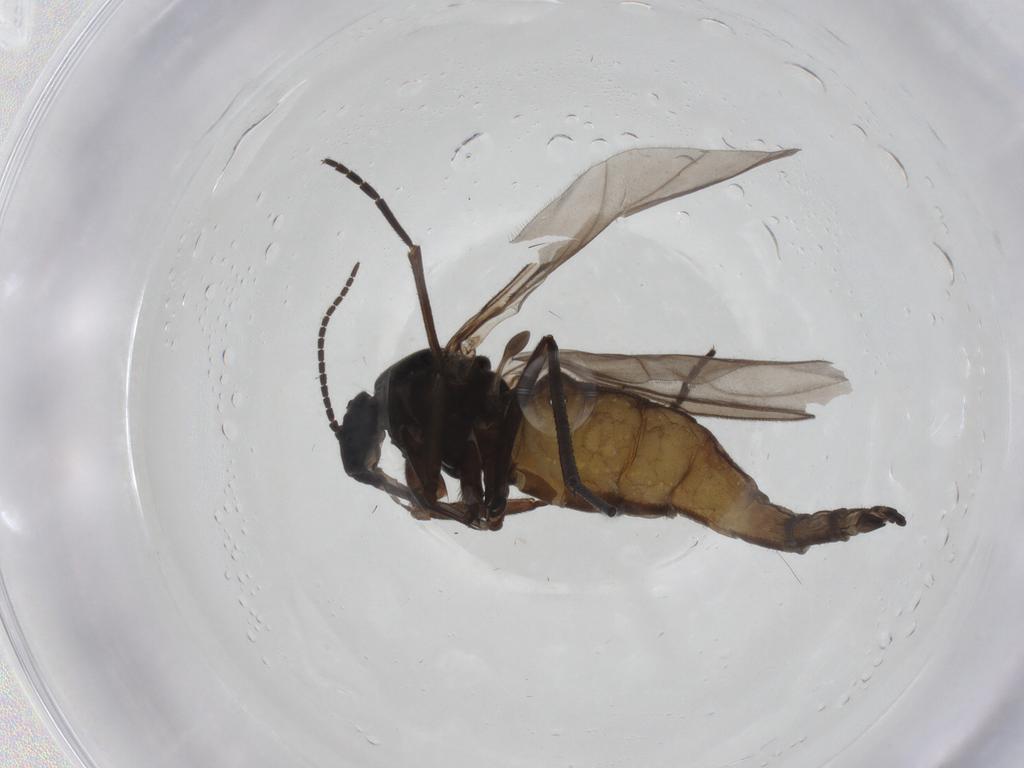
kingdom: Animalia
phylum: Arthropoda
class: Insecta
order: Diptera
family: Sciaridae
